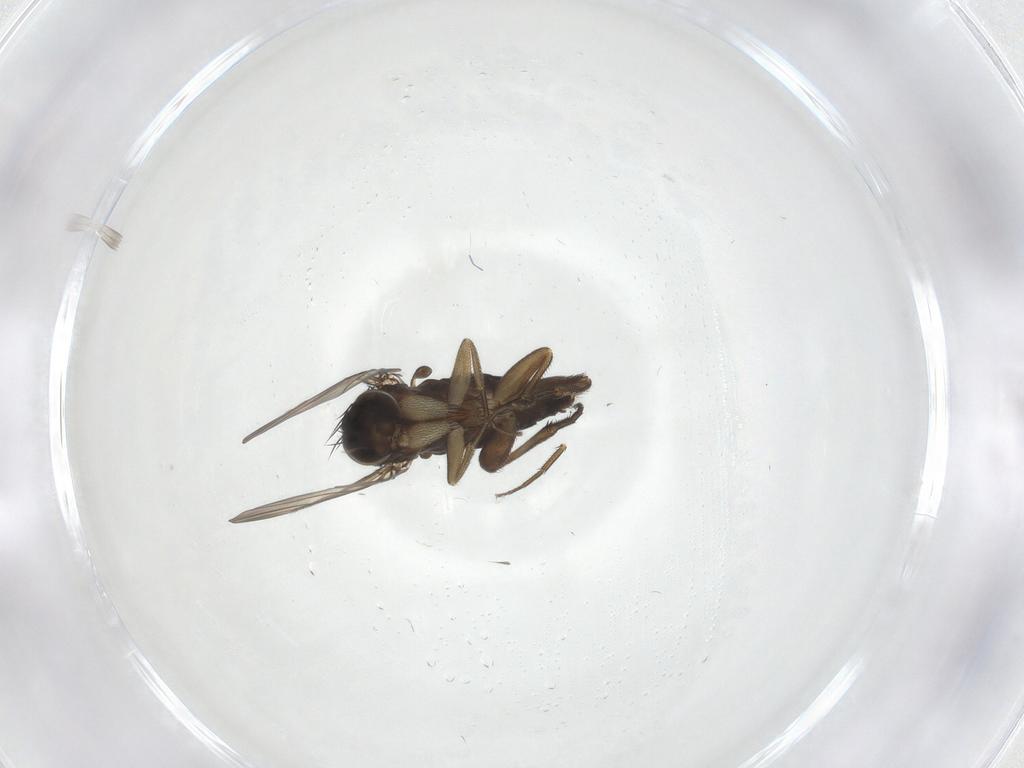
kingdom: Animalia
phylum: Arthropoda
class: Insecta
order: Diptera
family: Phoridae
